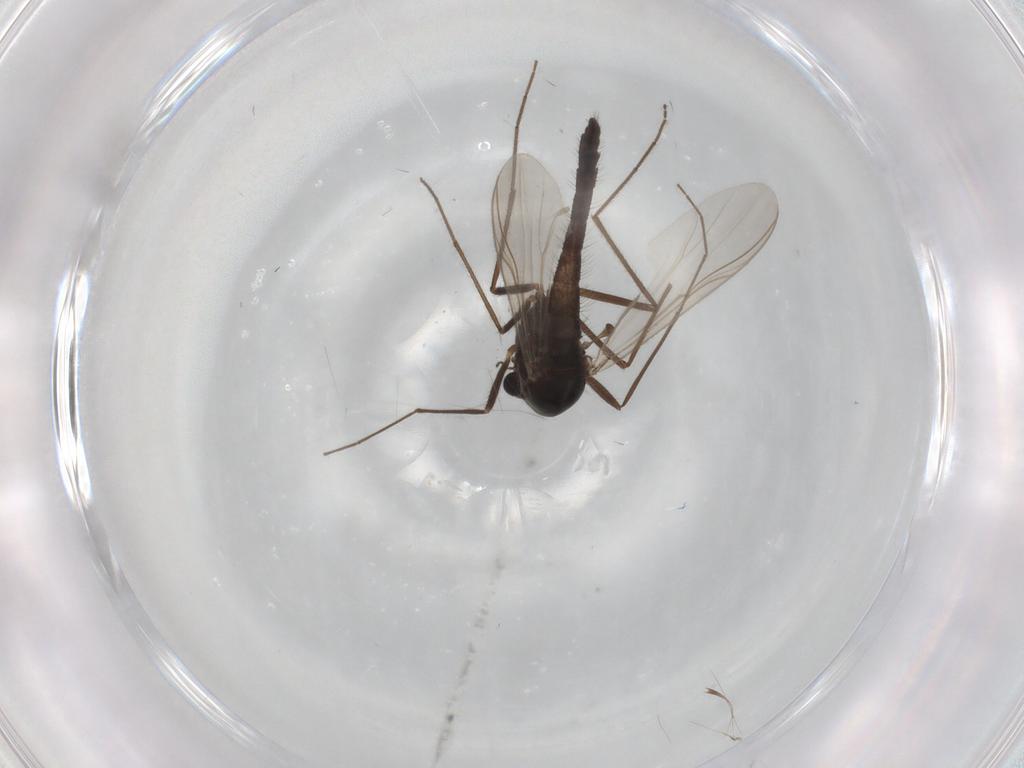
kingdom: Animalia
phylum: Arthropoda
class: Insecta
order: Diptera
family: Chironomidae
